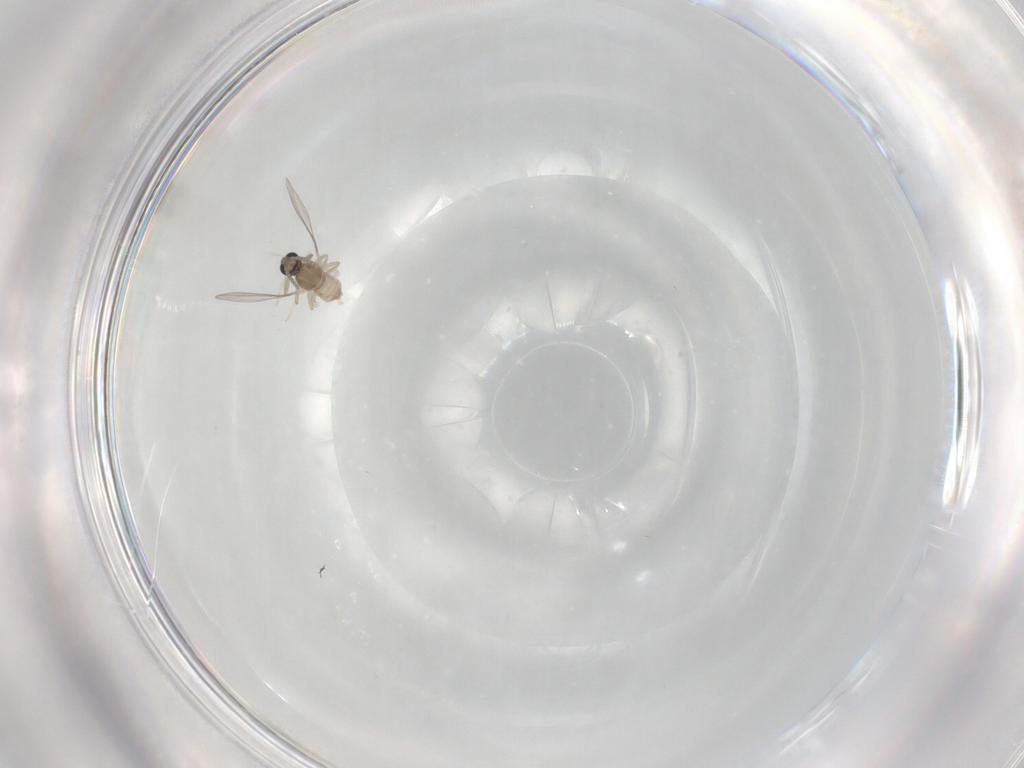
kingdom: Animalia
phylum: Arthropoda
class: Insecta
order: Diptera
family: Cecidomyiidae
